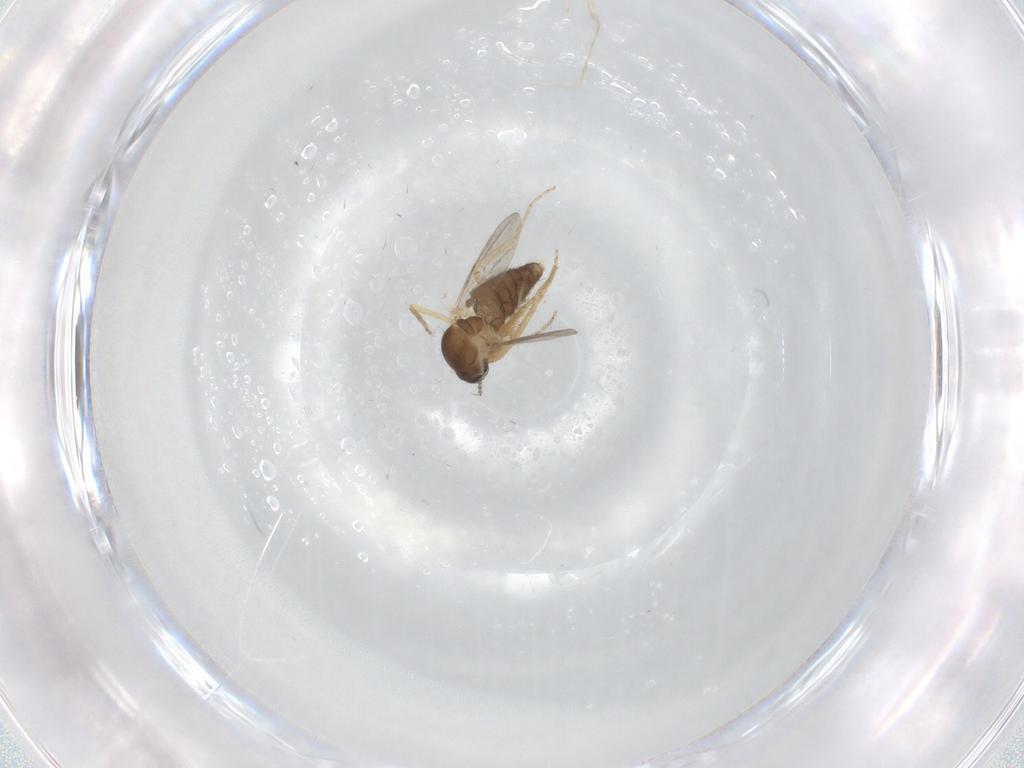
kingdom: Animalia
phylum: Arthropoda
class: Insecta
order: Diptera
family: Ceratopogonidae
